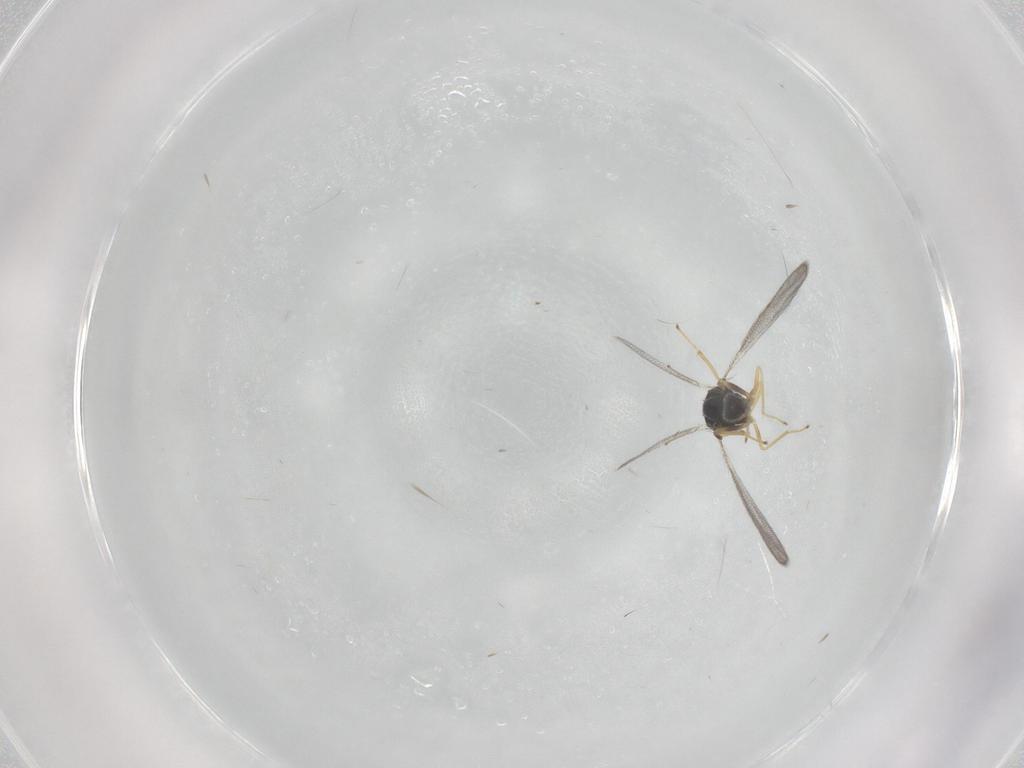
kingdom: Animalia
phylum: Arthropoda
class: Insecta
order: Hymenoptera
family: Eulophidae
